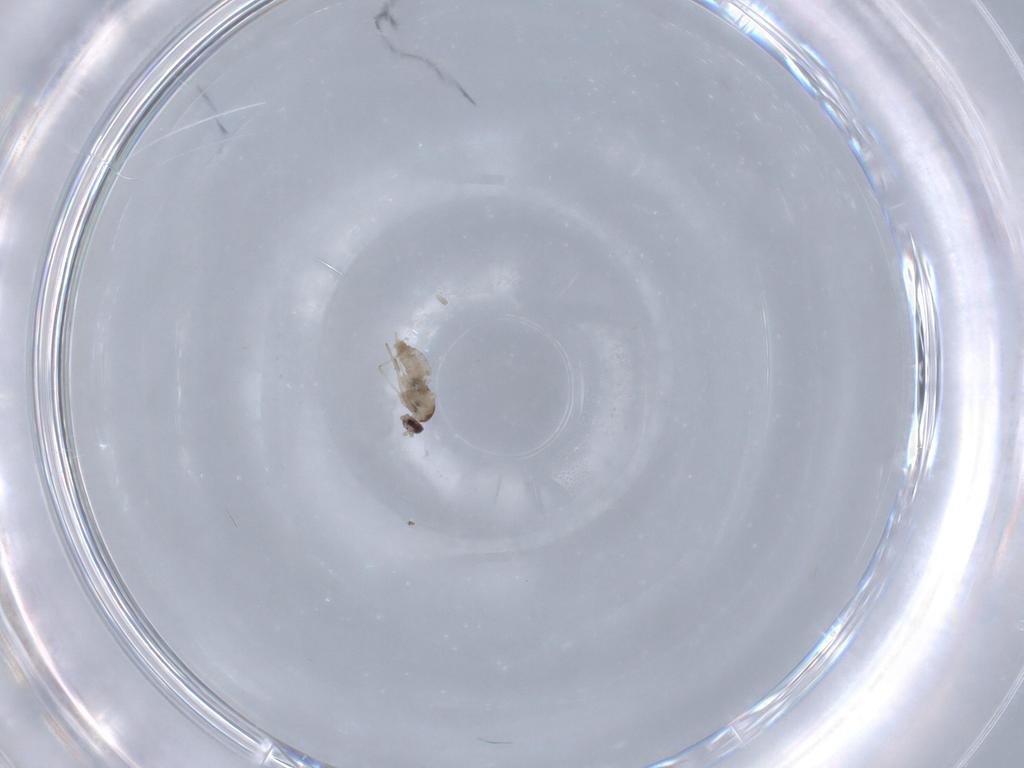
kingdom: Animalia
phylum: Arthropoda
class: Insecta
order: Diptera
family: Cecidomyiidae
